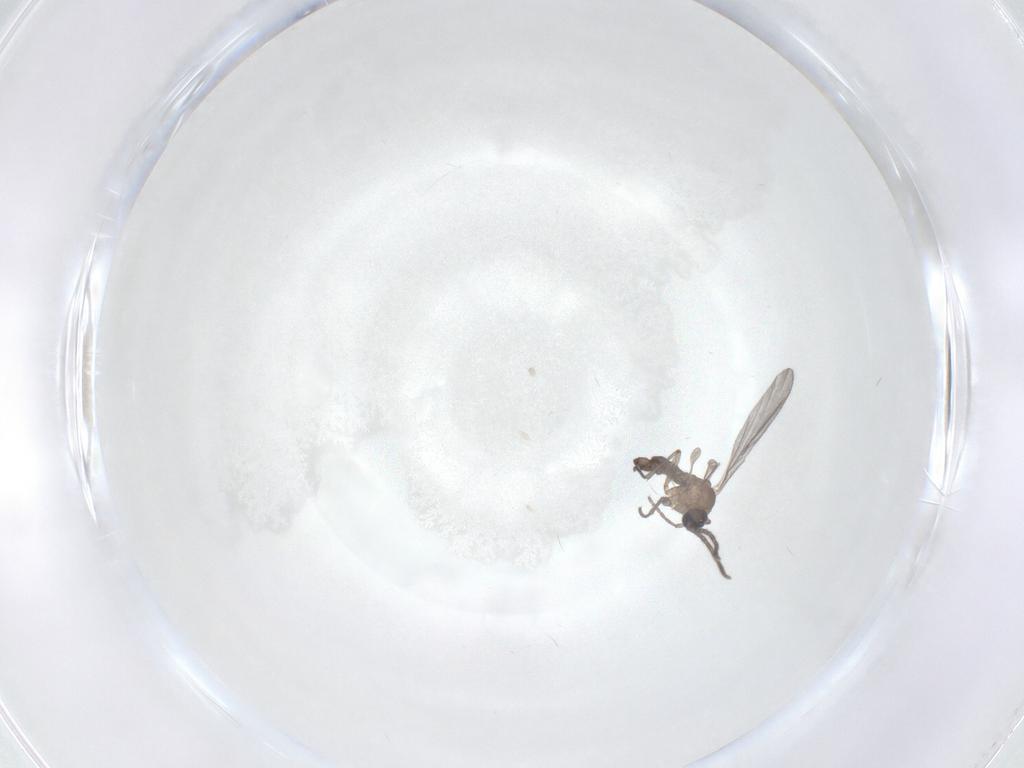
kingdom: Animalia
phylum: Arthropoda
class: Insecta
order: Diptera
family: Sciaridae
